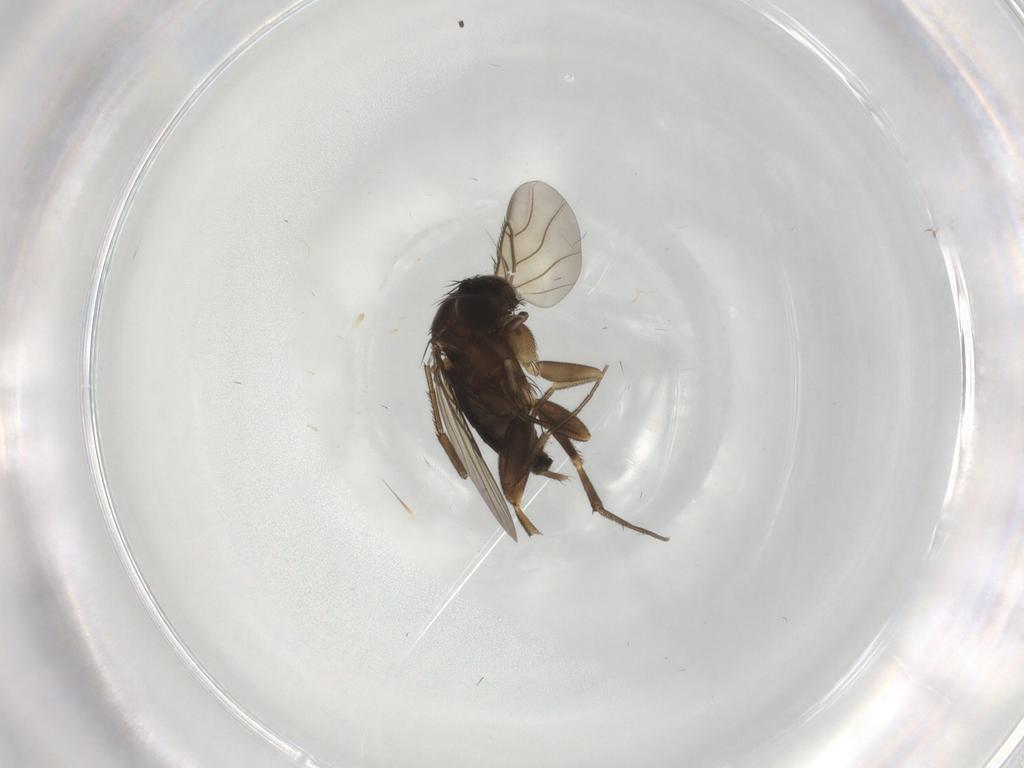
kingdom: Animalia
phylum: Arthropoda
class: Insecta
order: Diptera
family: Phoridae
